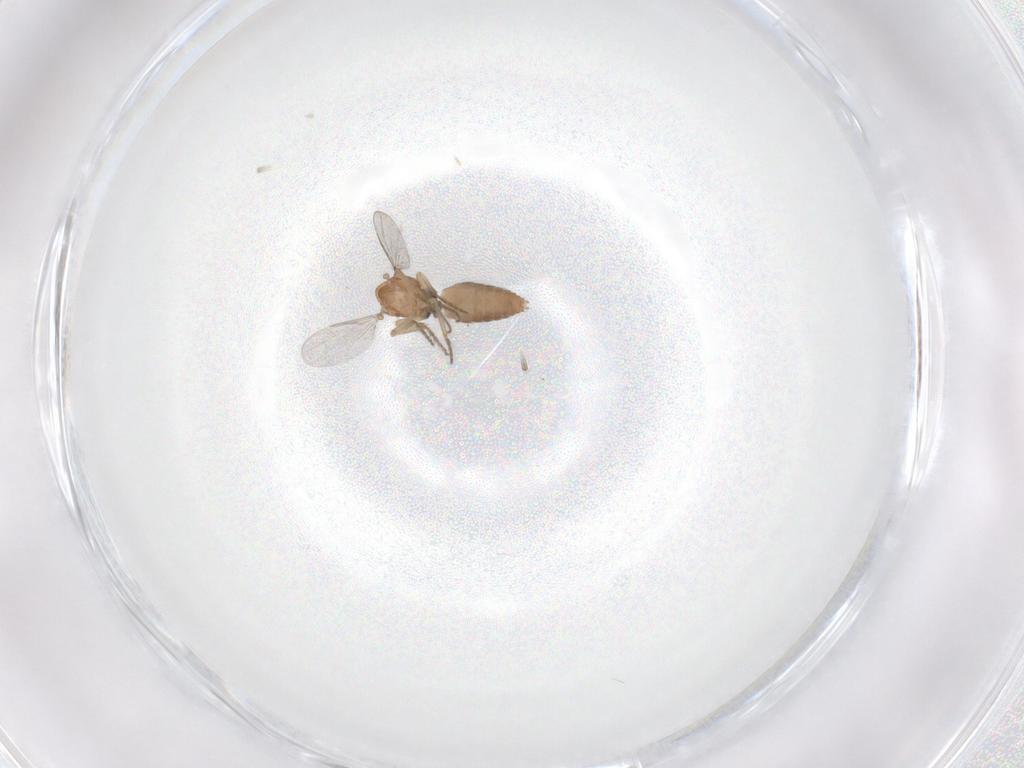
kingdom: Animalia
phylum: Arthropoda
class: Insecta
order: Diptera
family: Ceratopogonidae
